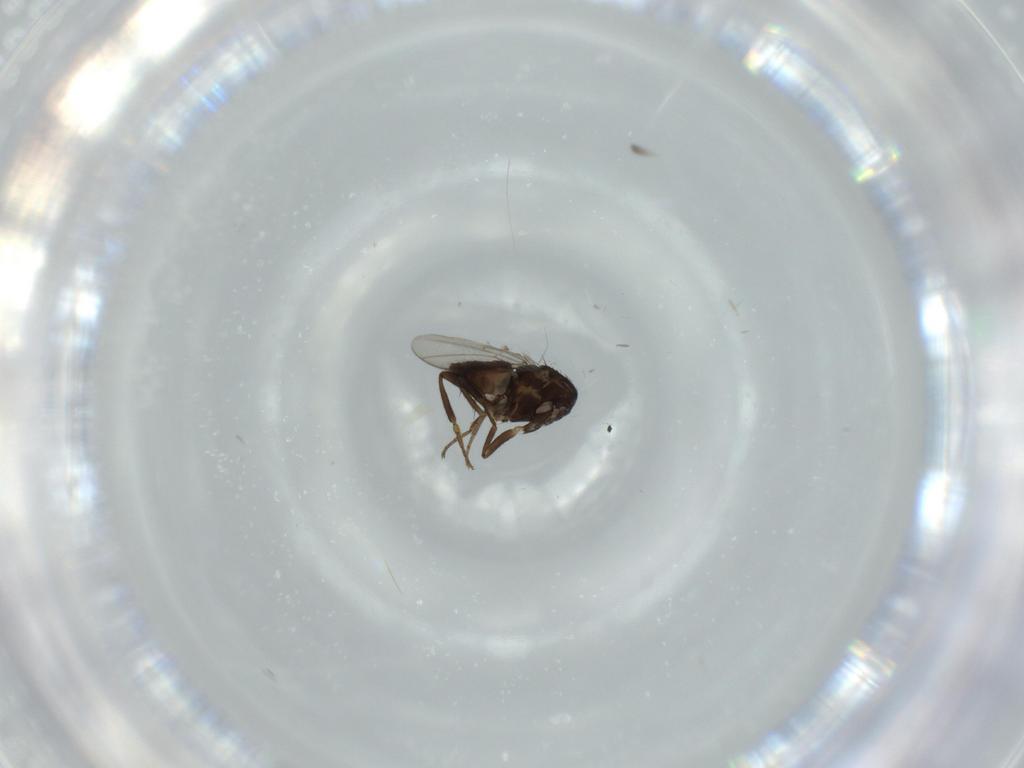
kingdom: Animalia
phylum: Arthropoda
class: Insecta
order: Diptera
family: Sphaeroceridae
